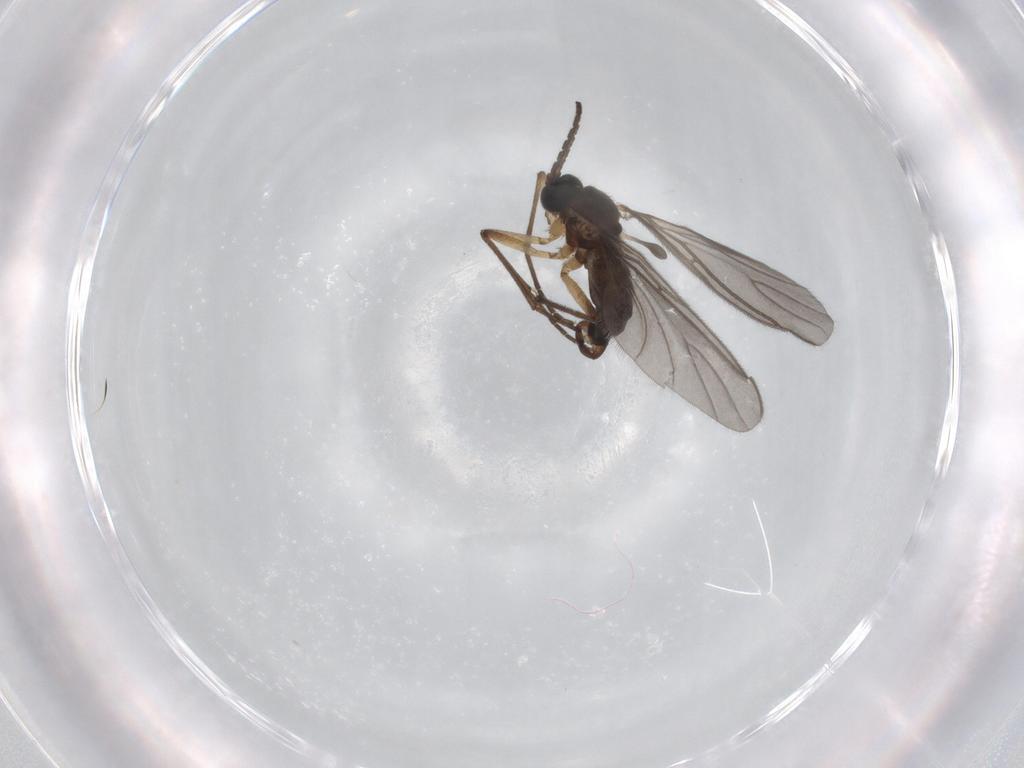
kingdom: Animalia
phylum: Arthropoda
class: Insecta
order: Diptera
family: Sciaridae
